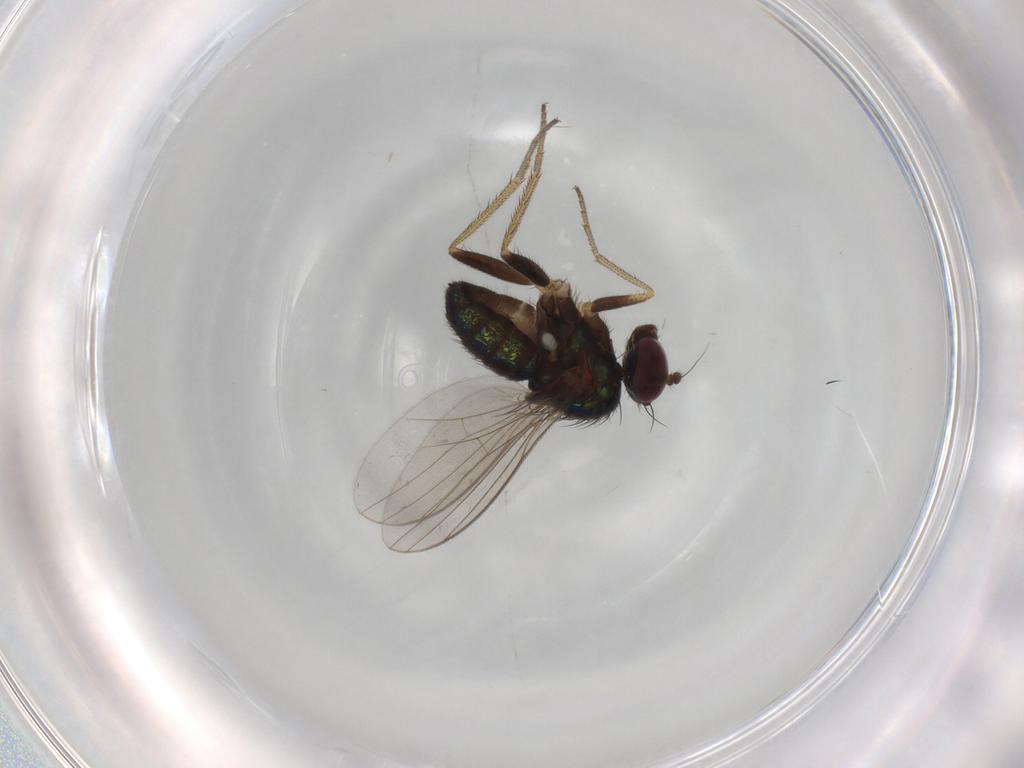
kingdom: Animalia
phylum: Arthropoda
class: Insecta
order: Diptera
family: Dolichopodidae
